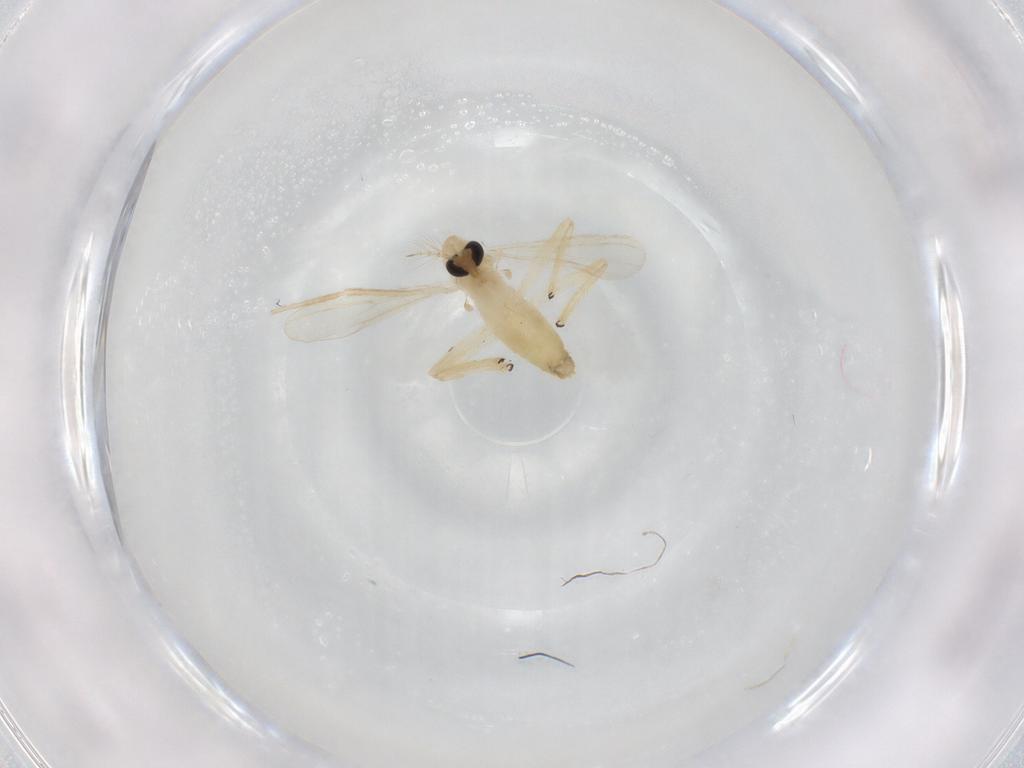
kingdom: Animalia
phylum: Arthropoda
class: Insecta
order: Diptera
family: Chironomidae
